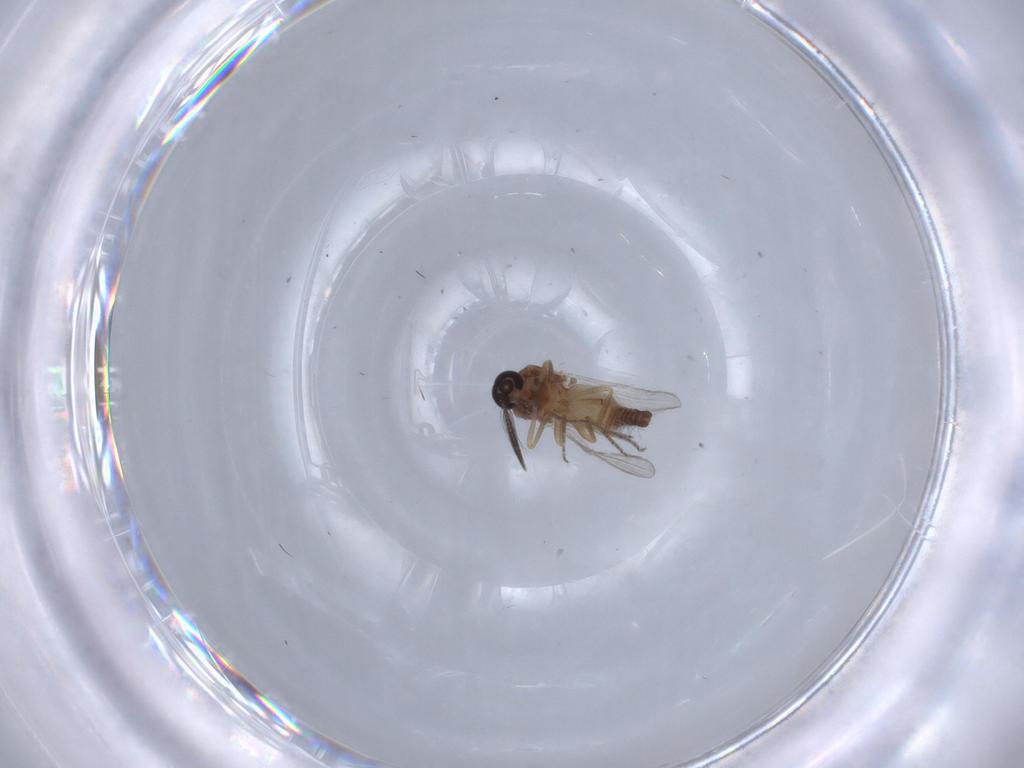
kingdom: Animalia
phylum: Arthropoda
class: Insecta
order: Diptera
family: Ceratopogonidae
